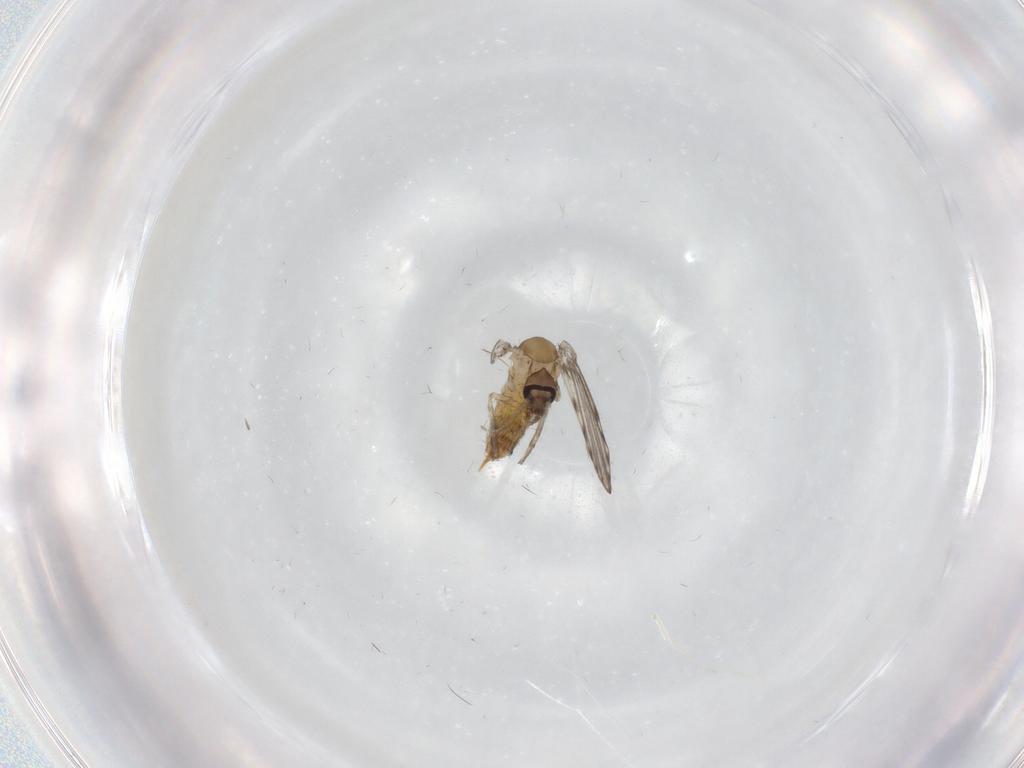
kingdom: Animalia
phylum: Arthropoda
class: Insecta
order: Diptera
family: Psychodidae
